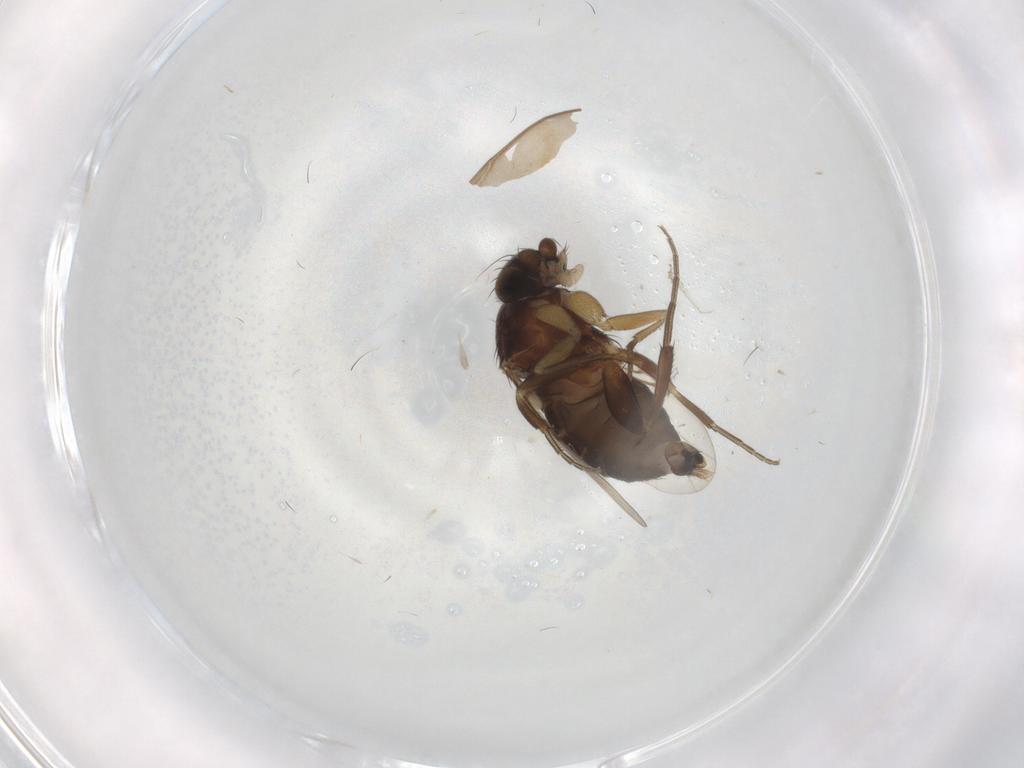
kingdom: Animalia
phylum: Arthropoda
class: Insecta
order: Diptera
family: Phoridae
